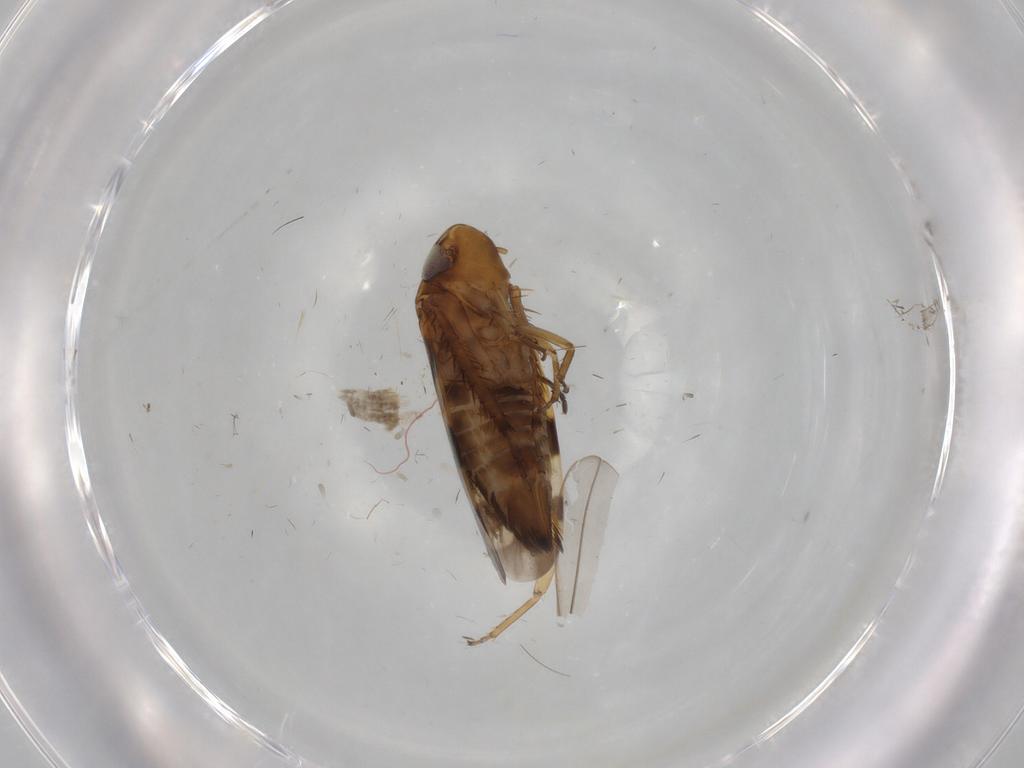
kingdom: Animalia
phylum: Arthropoda
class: Insecta
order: Hemiptera
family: Cicadellidae
